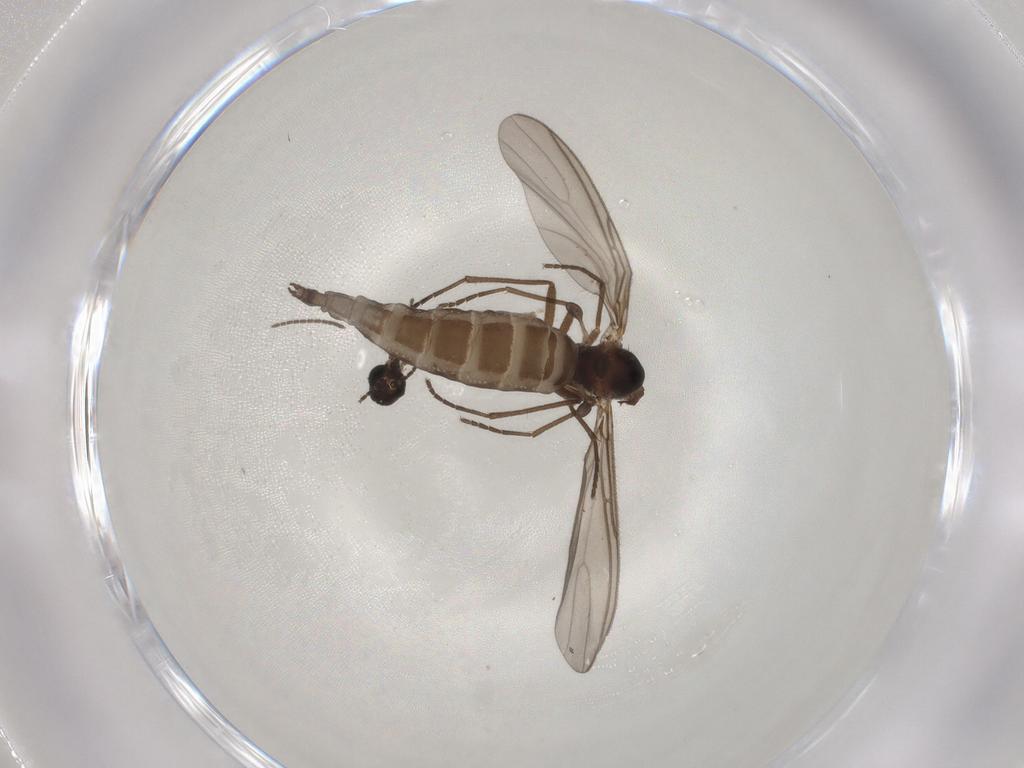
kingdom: Animalia
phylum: Arthropoda
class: Insecta
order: Diptera
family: Sciaridae
